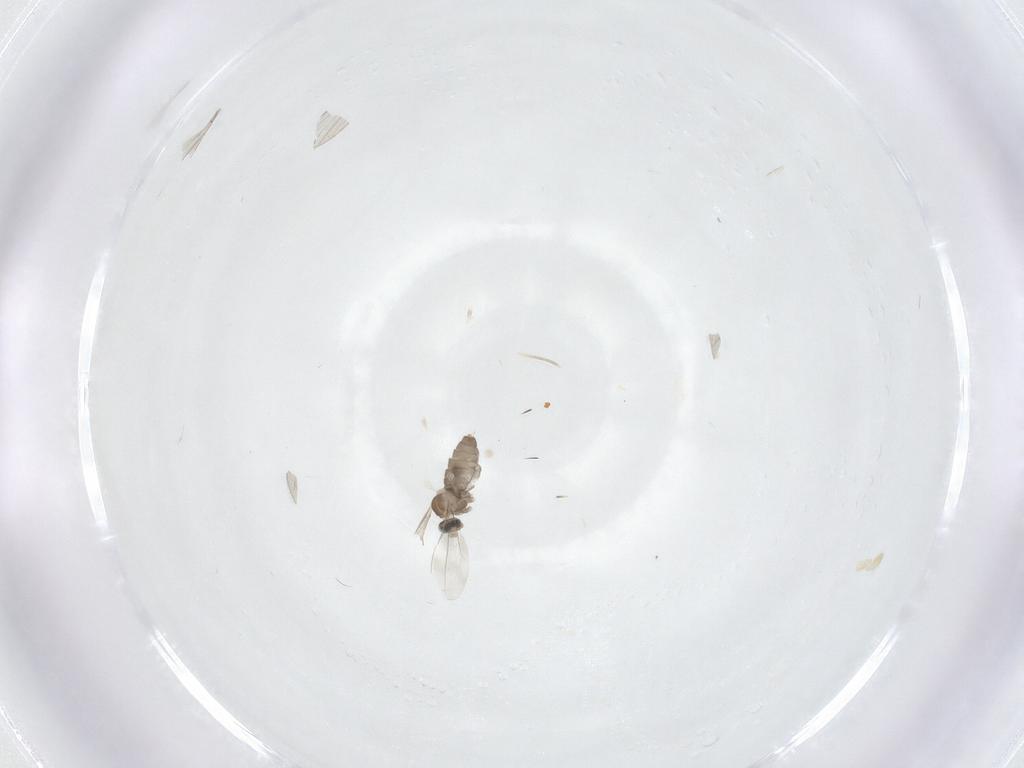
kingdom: Animalia
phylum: Arthropoda
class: Insecta
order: Diptera
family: Cecidomyiidae
